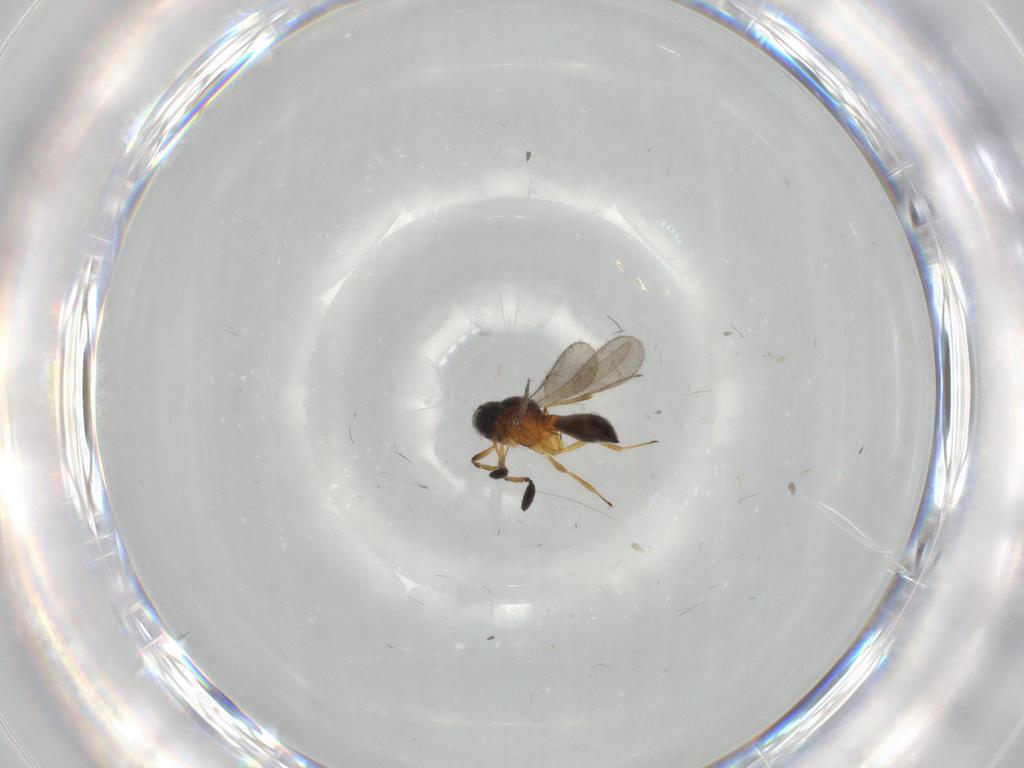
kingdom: Animalia
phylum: Arthropoda
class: Insecta
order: Hymenoptera
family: Scelionidae
